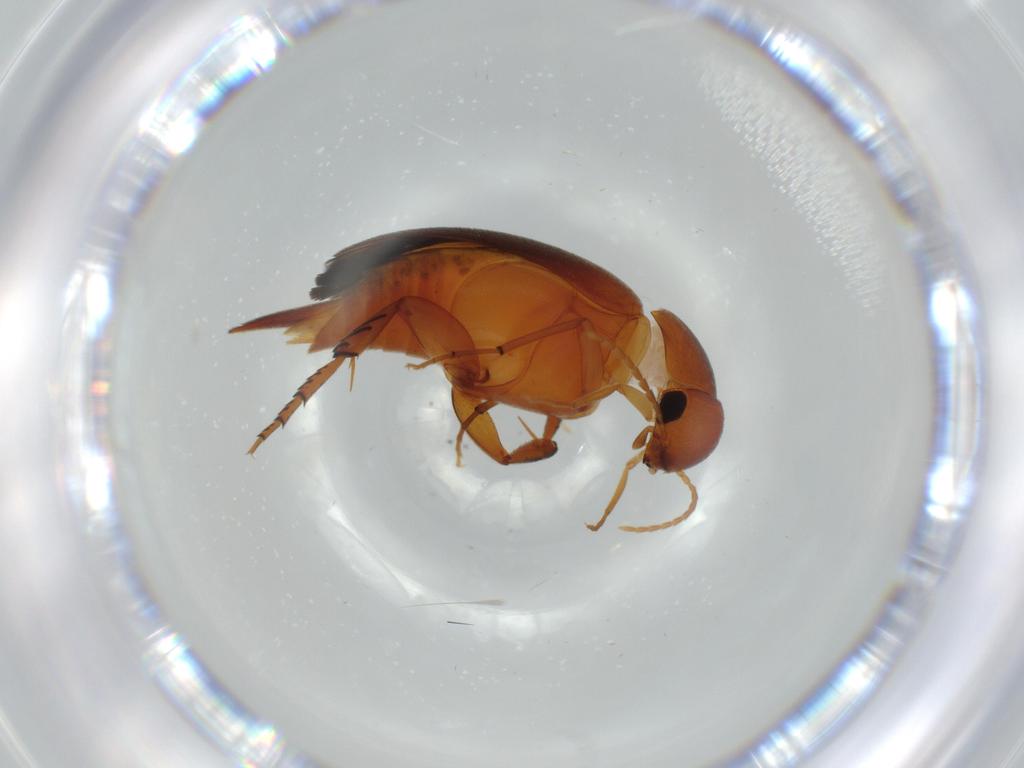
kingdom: Animalia
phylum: Arthropoda
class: Insecta
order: Coleoptera
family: Mordellidae
